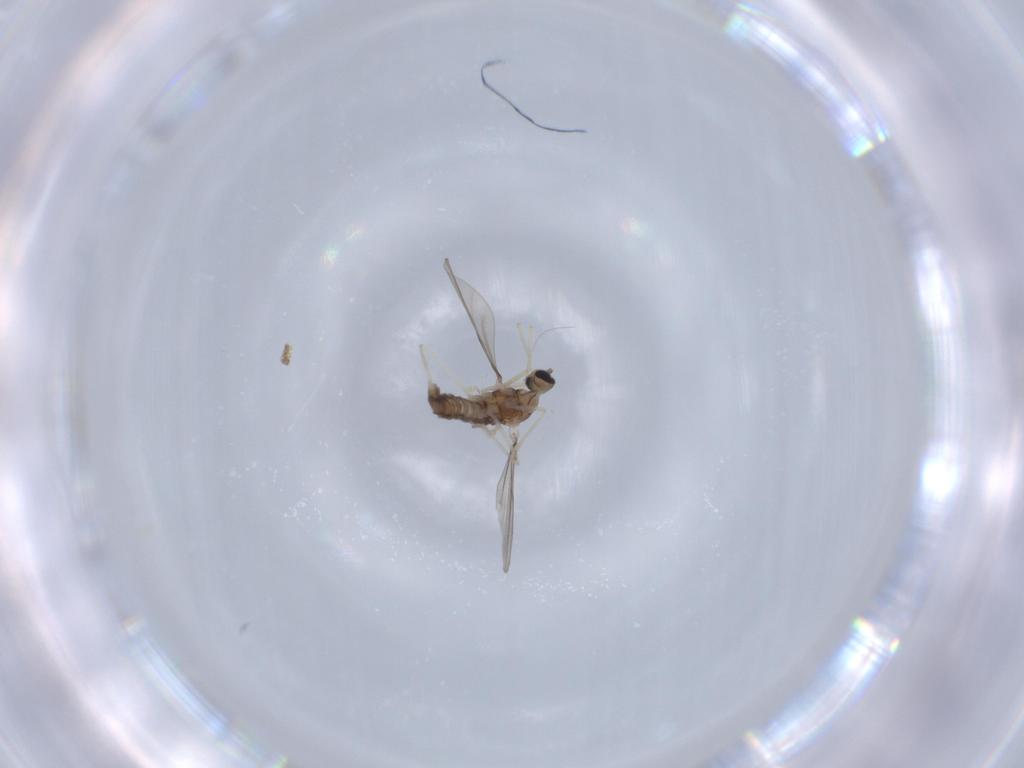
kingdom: Animalia
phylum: Arthropoda
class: Insecta
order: Diptera
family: Cecidomyiidae
